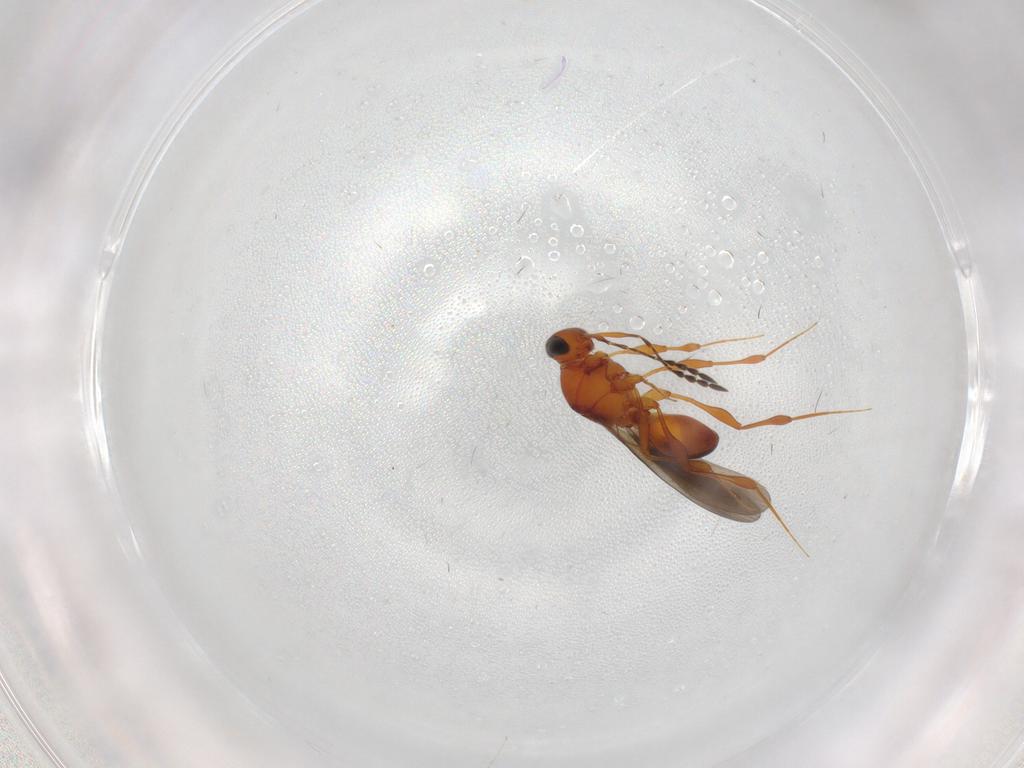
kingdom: Animalia
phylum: Arthropoda
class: Insecta
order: Hymenoptera
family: Platygastridae
